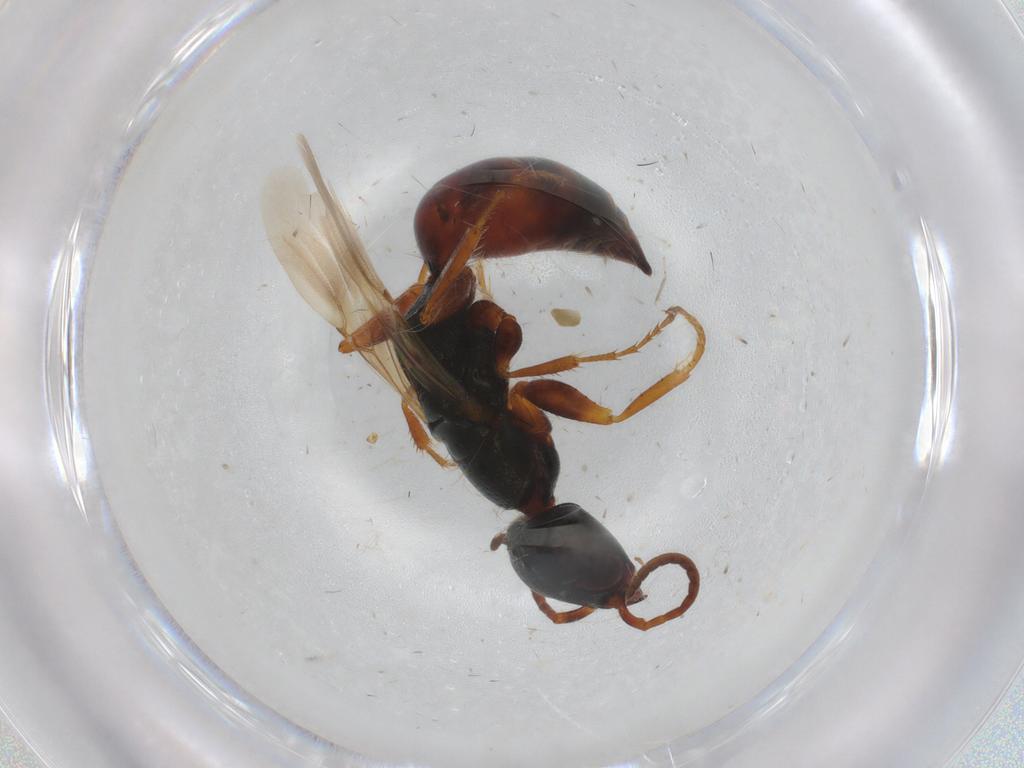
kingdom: Animalia
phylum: Arthropoda
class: Insecta
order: Hymenoptera
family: Bethylidae
